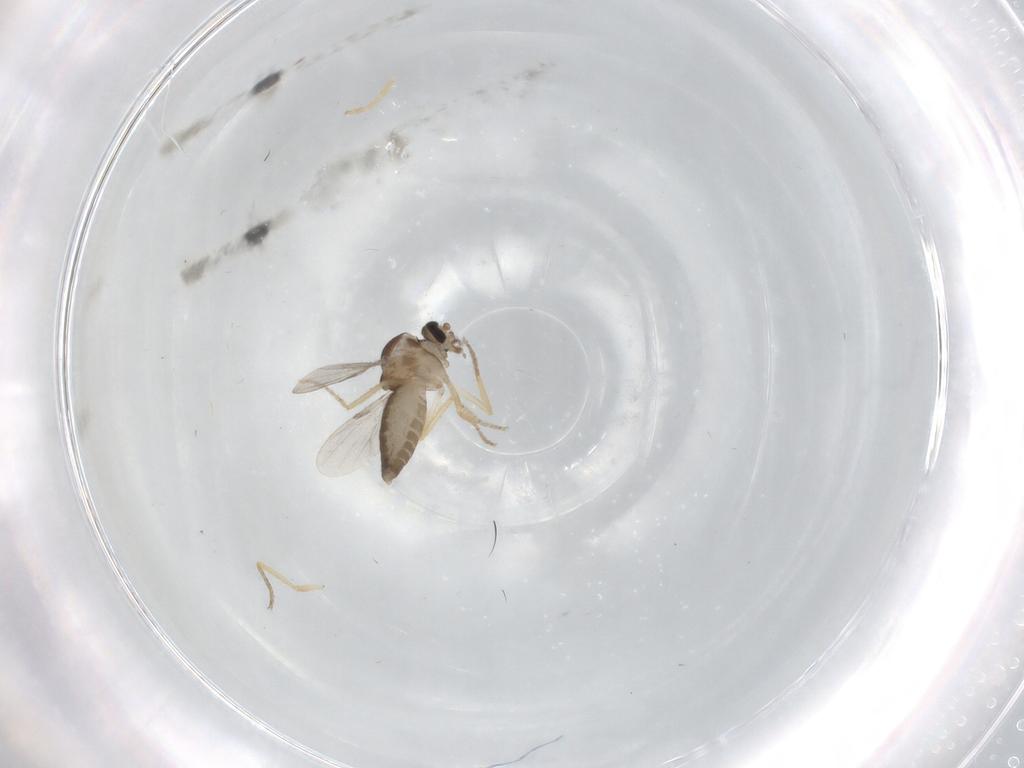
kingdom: Animalia
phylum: Arthropoda
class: Insecta
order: Diptera
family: Ceratopogonidae
